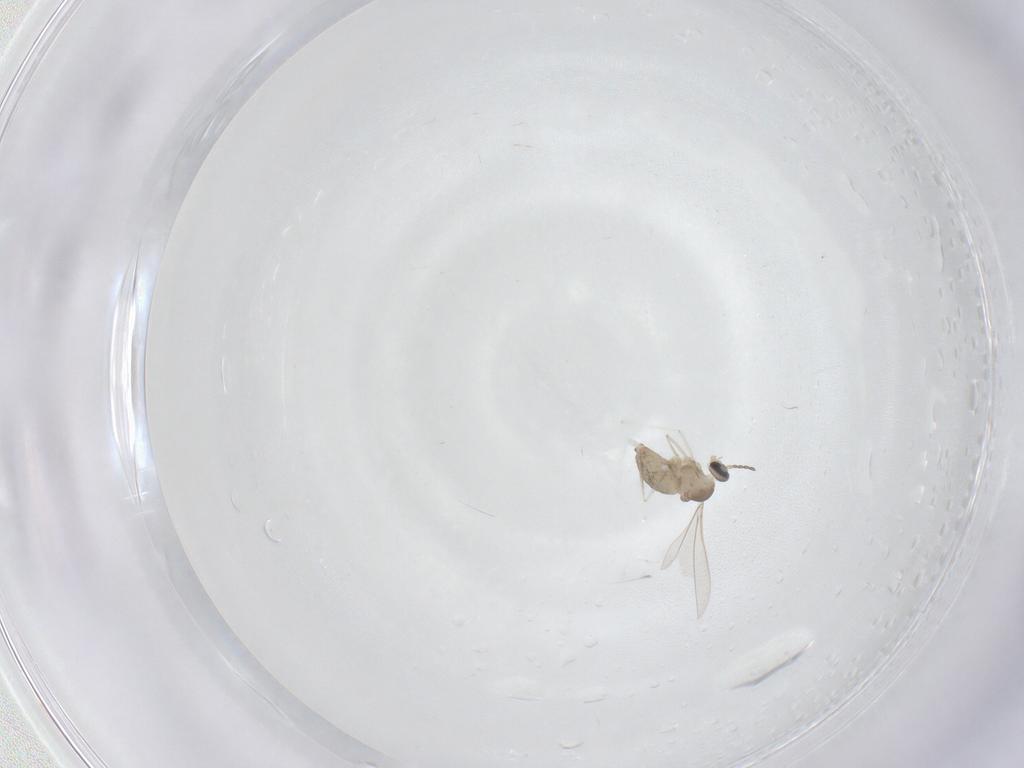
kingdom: Animalia
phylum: Arthropoda
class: Insecta
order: Diptera
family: Cecidomyiidae
